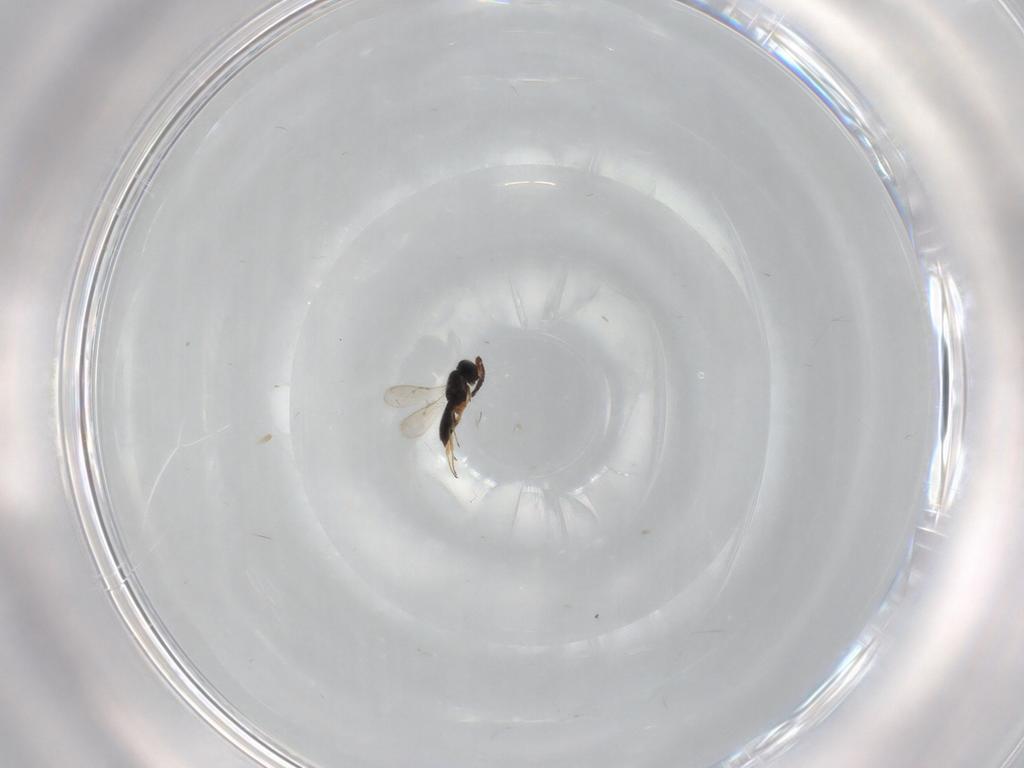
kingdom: Animalia
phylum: Arthropoda
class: Insecta
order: Hymenoptera
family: Scelionidae
